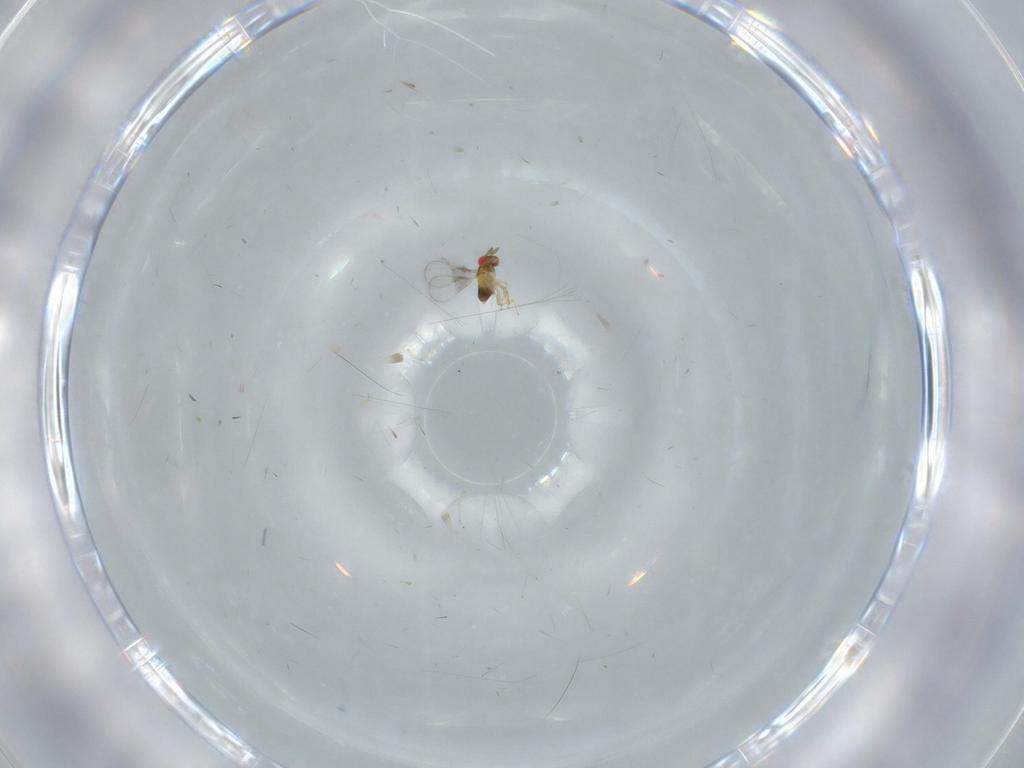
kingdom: Animalia
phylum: Arthropoda
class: Insecta
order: Hymenoptera
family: Trichogrammatidae
